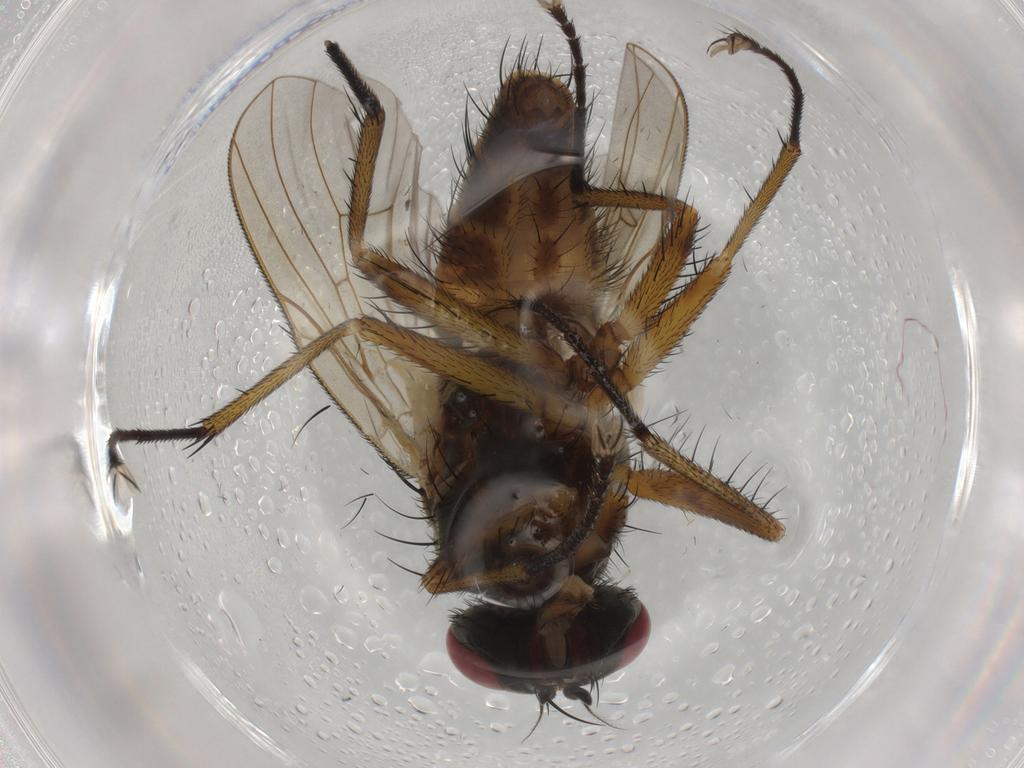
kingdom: Animalia
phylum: Arthropoda
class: Insecta
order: Diptera
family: Muscidae
